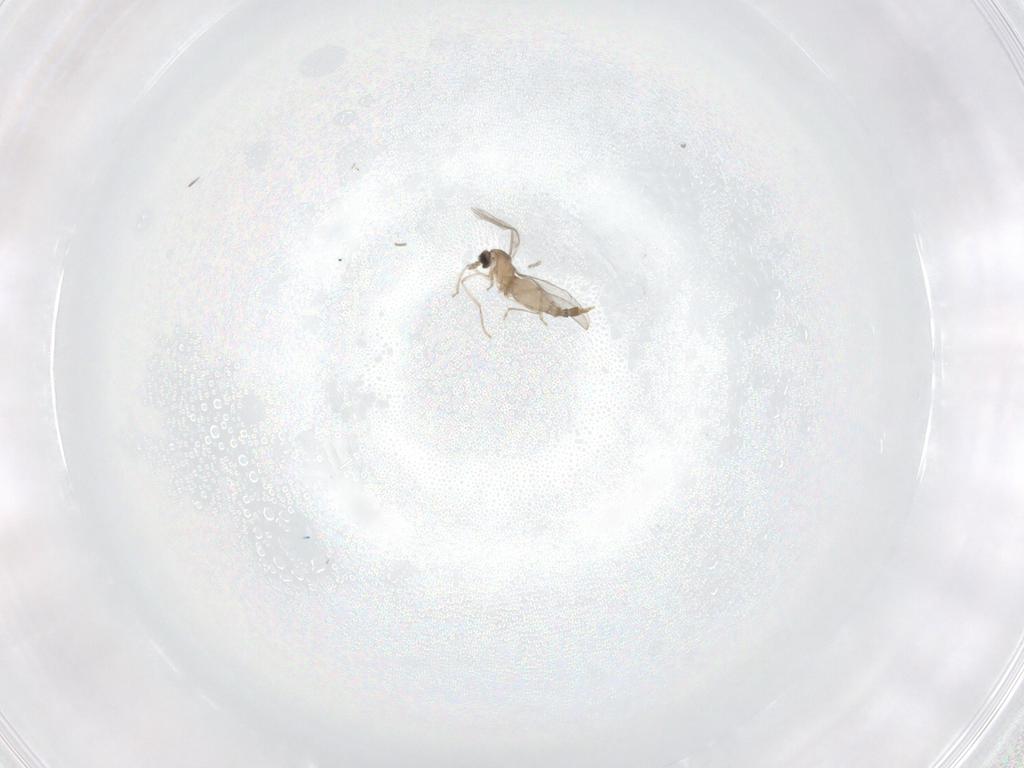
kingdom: Animalia
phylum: Arthropoda
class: Insecta
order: Diptera
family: Cecidomyiidae
